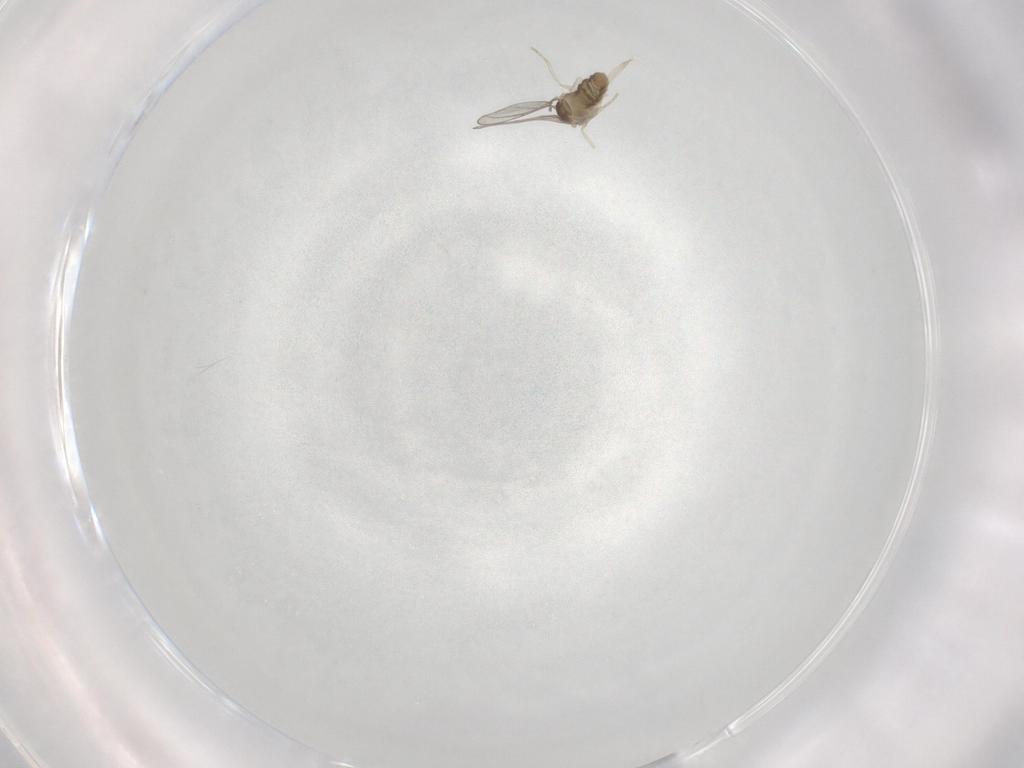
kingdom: Animalia
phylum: Arthropoda
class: Insecta
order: Diptera
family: Cecidomyiidae
